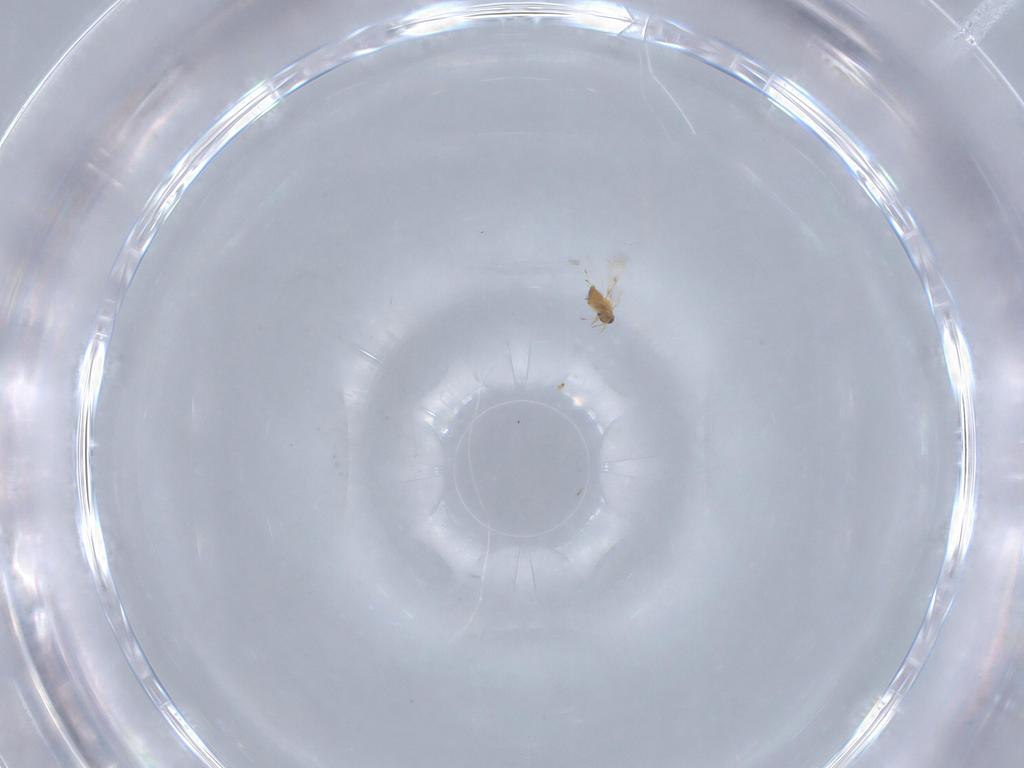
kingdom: Animalia
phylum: Arthropoda
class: Insecta
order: Hymenoptera
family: Trichogrammatidae
